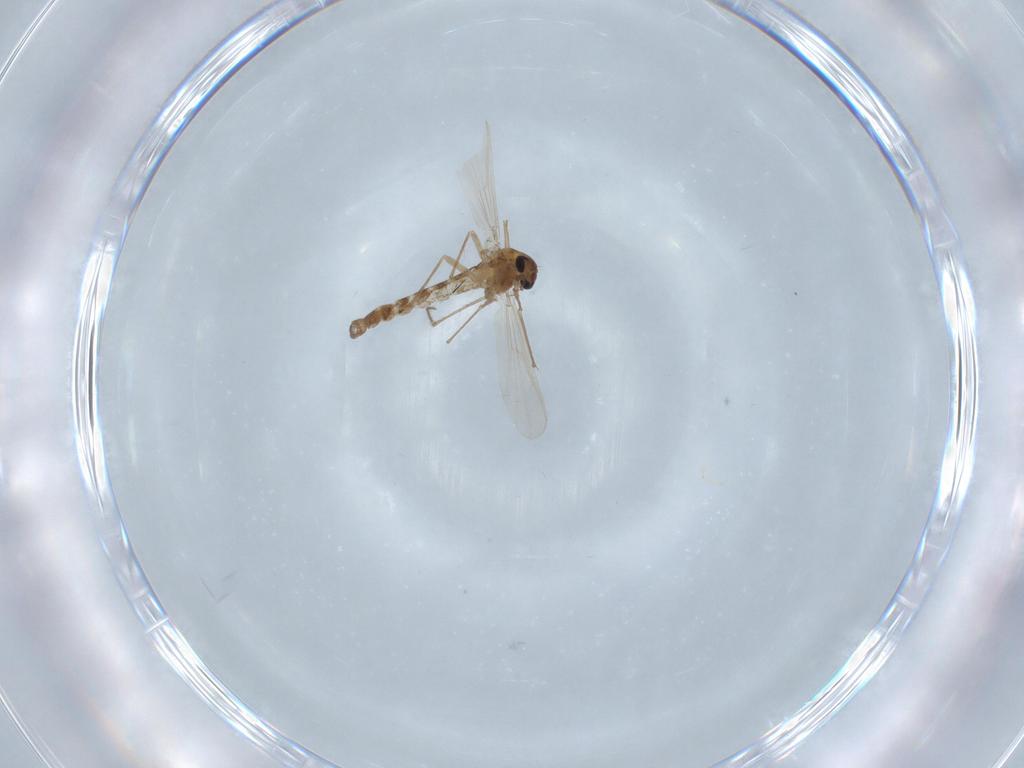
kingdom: Animalia
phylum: Arthropoda
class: Insecta
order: Diptera
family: Chironomidae
